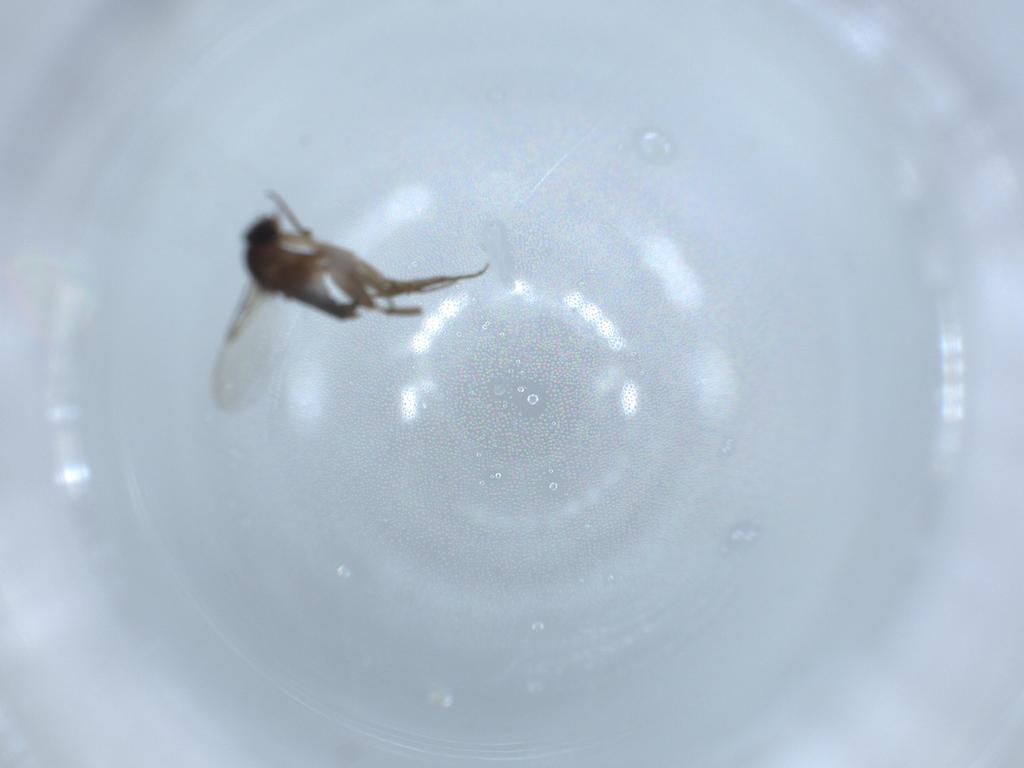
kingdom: Animalia
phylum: Arthropoda
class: Insecta
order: Diptera
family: Phoridae
